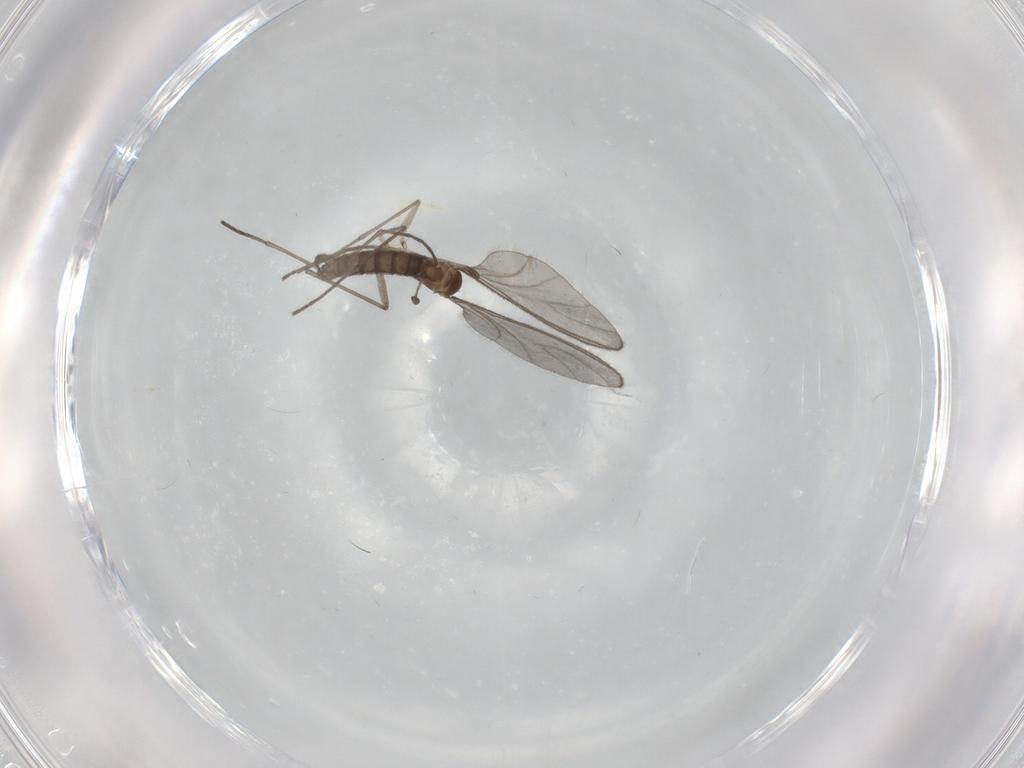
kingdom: Animalia
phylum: Arthropoda
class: Insecta
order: Diptera
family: Sciaridae
